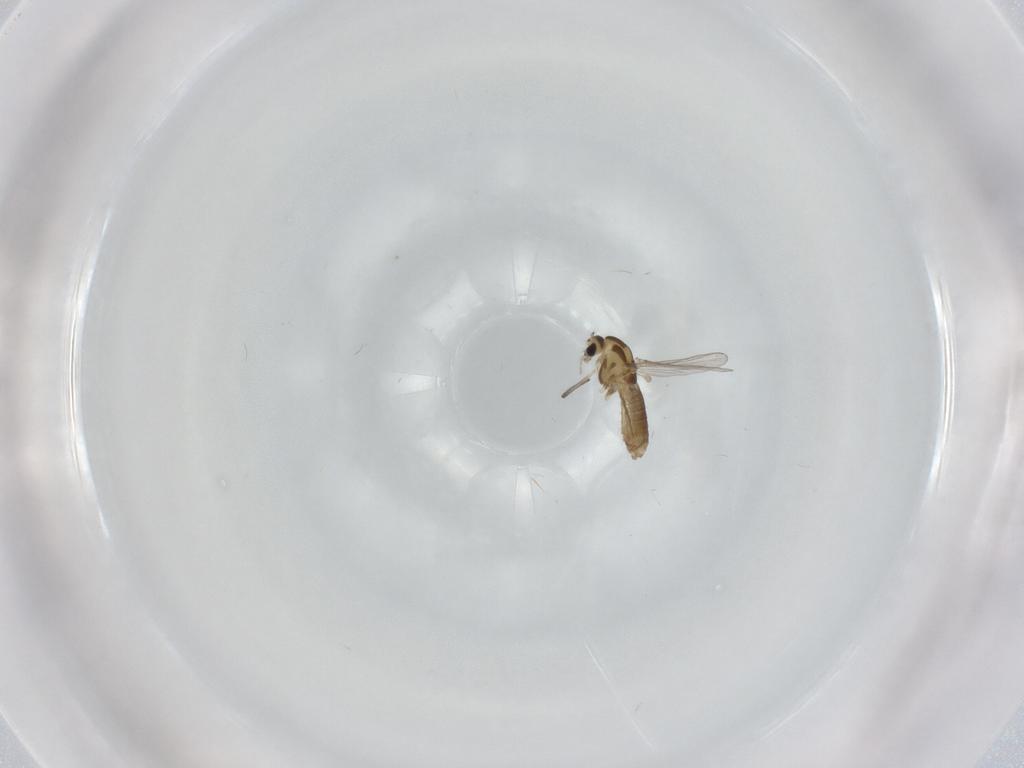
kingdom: Animalia
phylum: Arthropoda
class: Insecta
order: Diptera
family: Chironomidae
